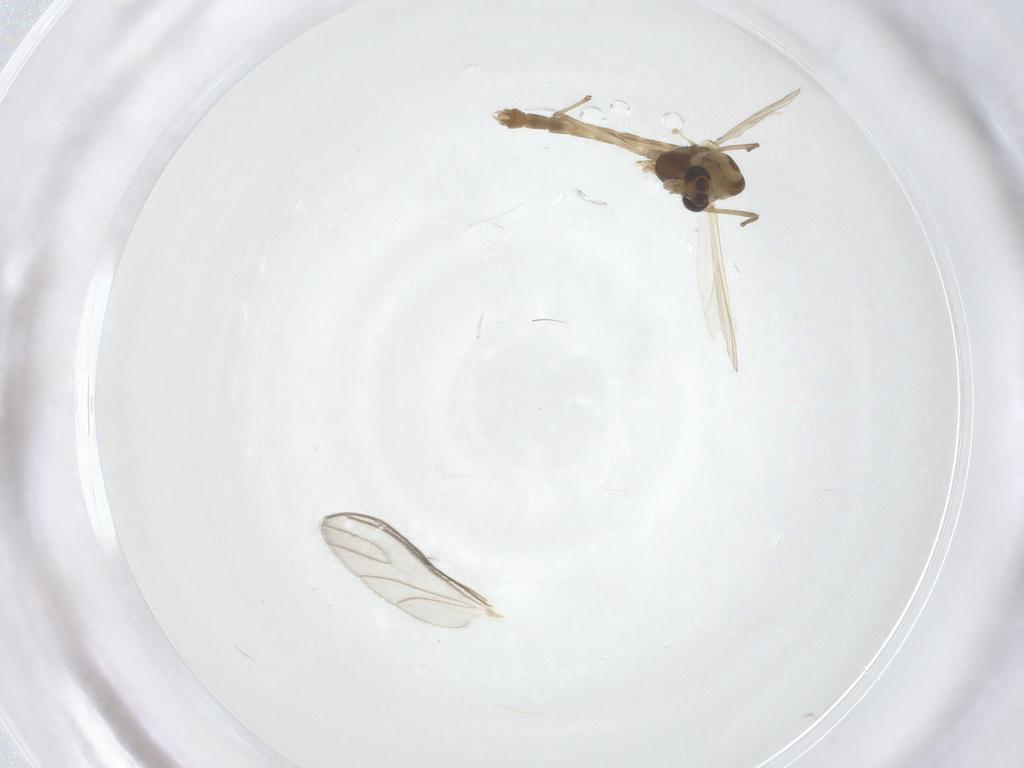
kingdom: Animalia
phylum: Arthropoda
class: Insecta
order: Diptera
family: Chironomidae
